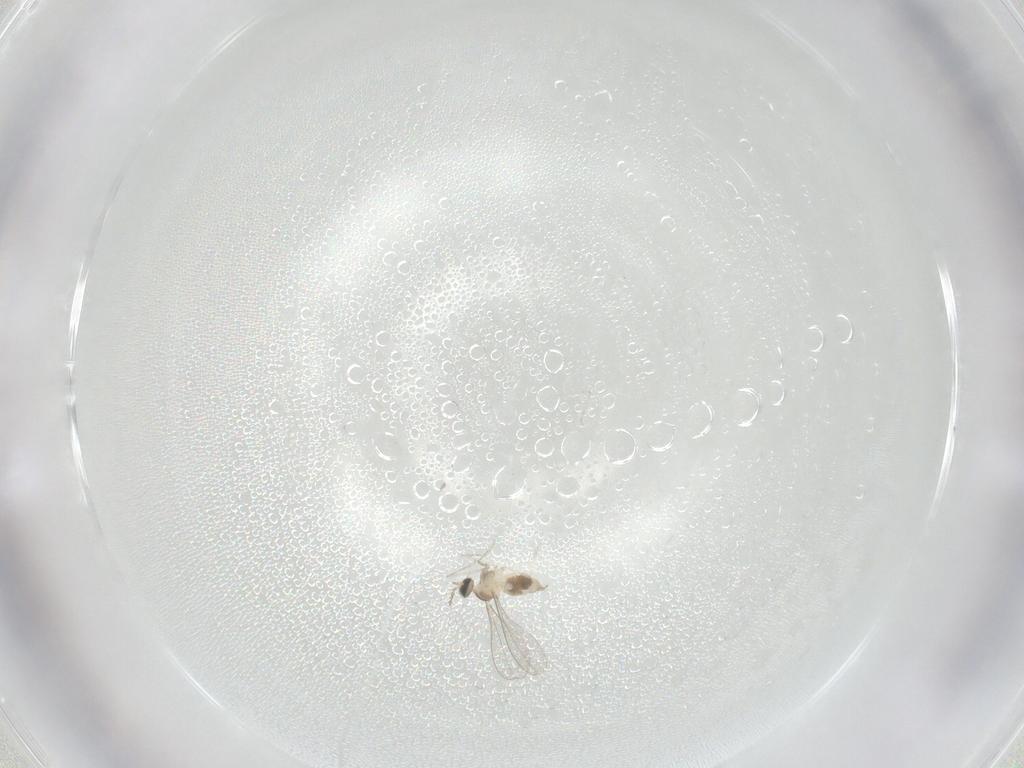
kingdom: Animalia
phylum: Arthropoda
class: Insecta
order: Diptera
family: Cecidomyiidae
